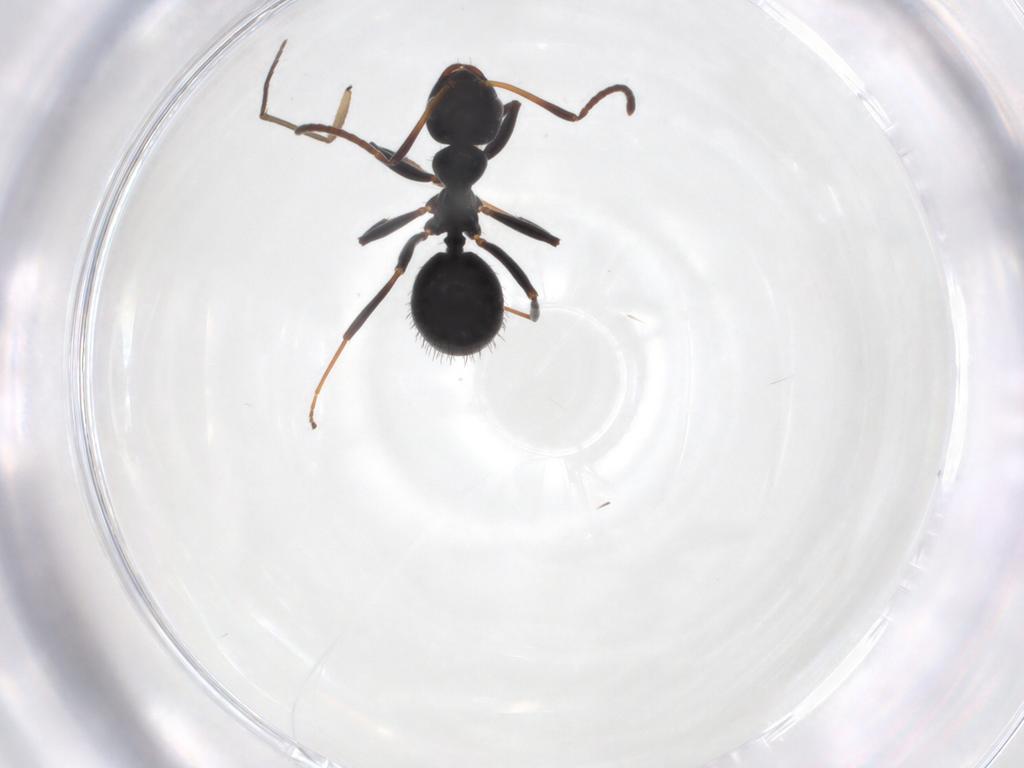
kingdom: Animalia
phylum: Arthropoda
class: Insecta
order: Hymenoptera
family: Formicidae
